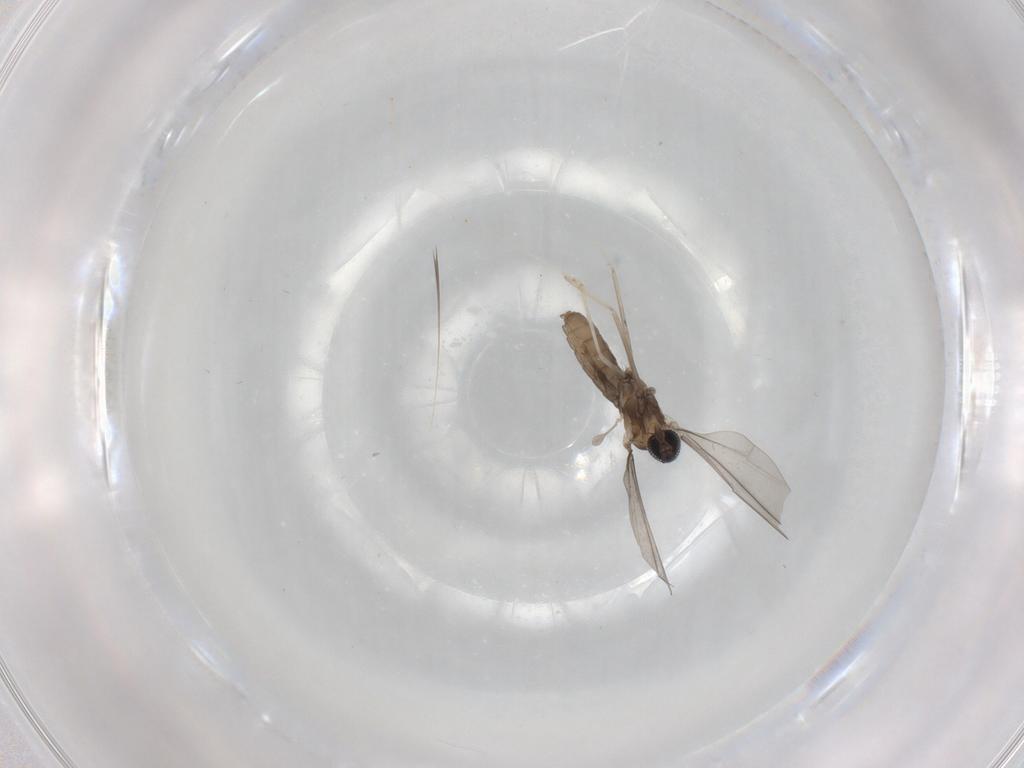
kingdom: Animalia
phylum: Arthropoda
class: Insecta
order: Diptera
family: Psychodidae
